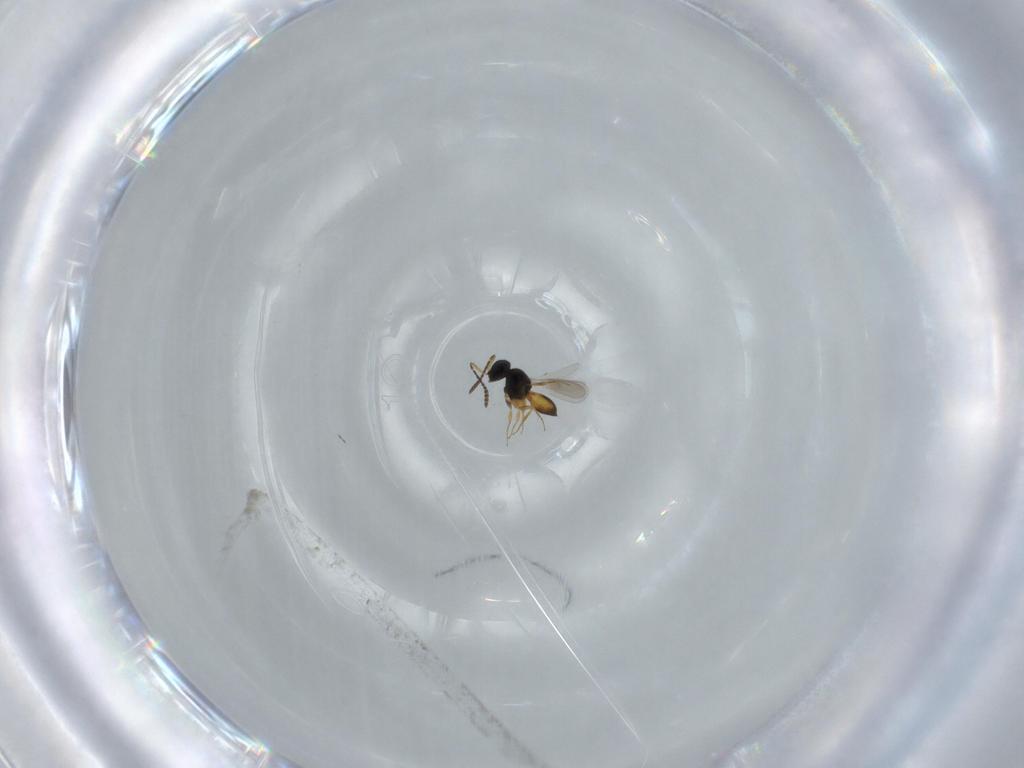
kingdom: Animalia
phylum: Arthropoda
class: Insecta
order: Hymenoptera
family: Scelionidae
